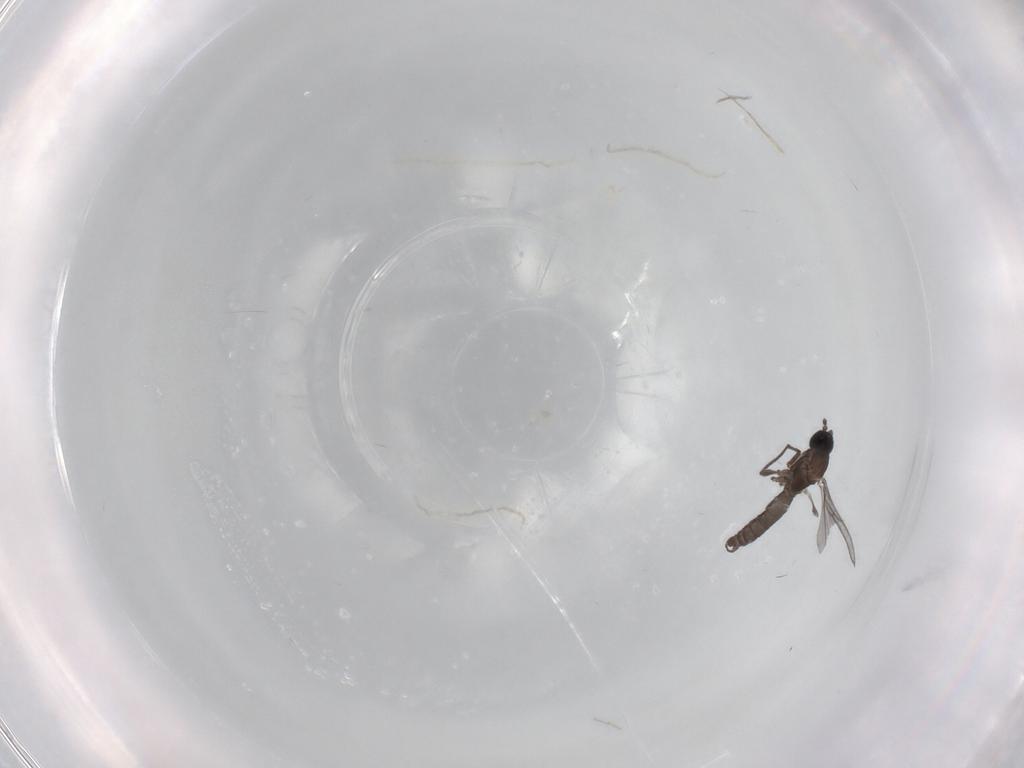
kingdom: Animalia
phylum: Arthropoda
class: Insecta
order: Diptera
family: Sciaridae
